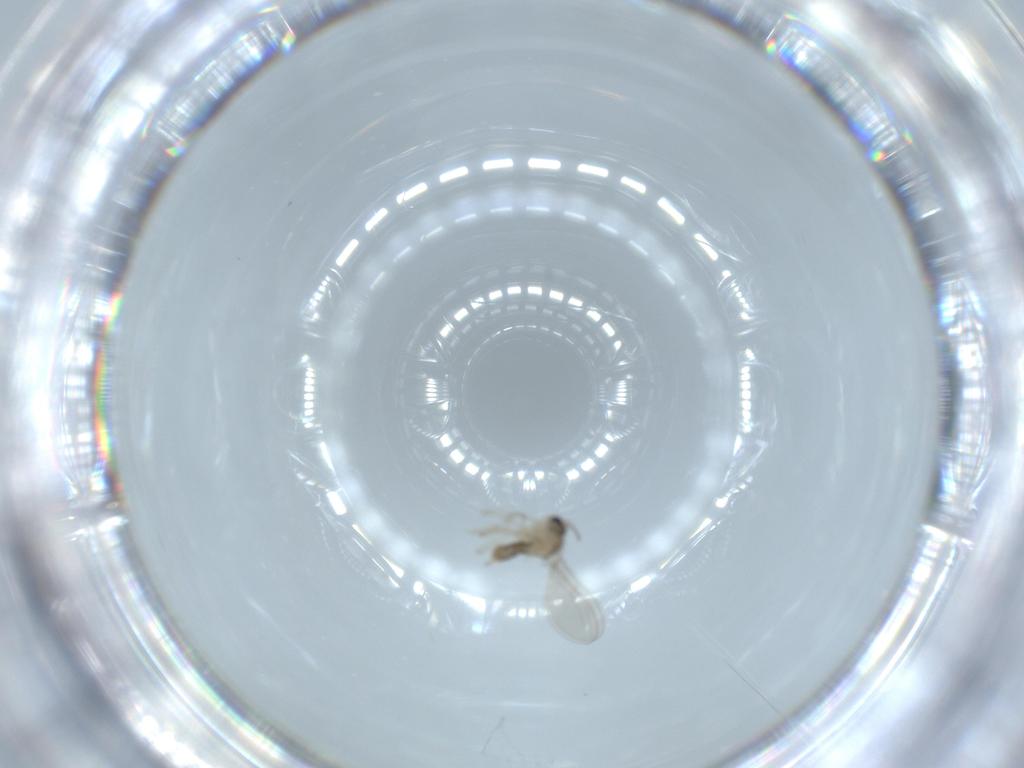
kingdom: Animalia
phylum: Arthropoda
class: Insecta
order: Diptera
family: Cecidomyiidae
